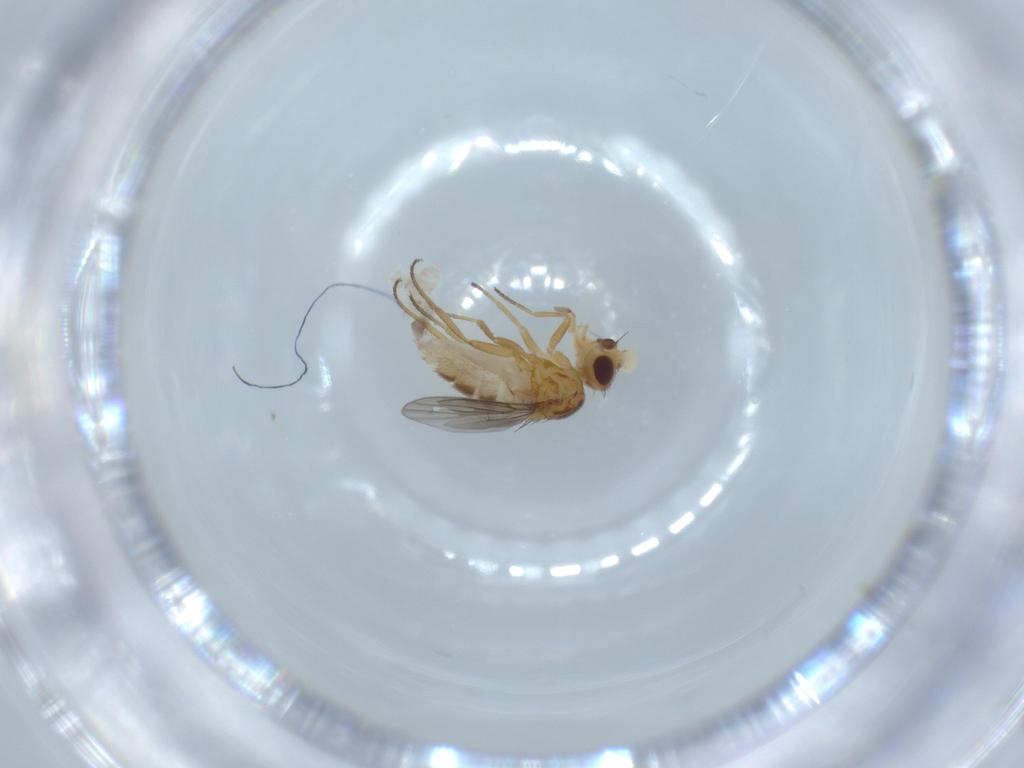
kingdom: Animalia
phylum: Arthropoda
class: Insecta
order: Diptera
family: Chloropidae
